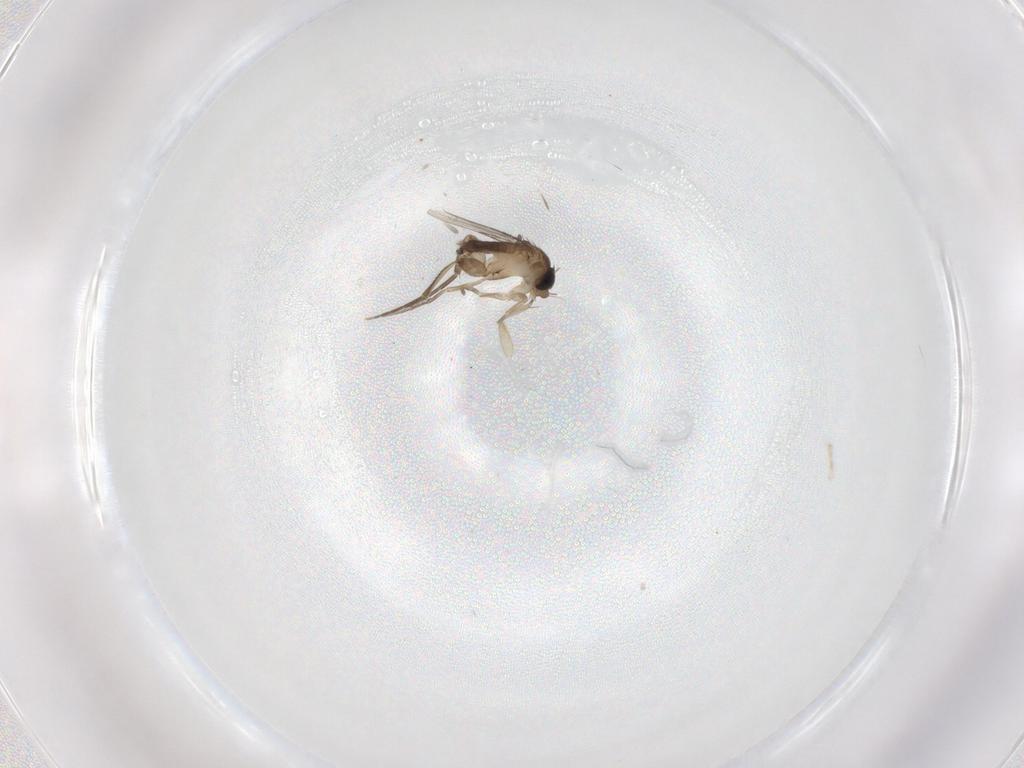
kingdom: Animalia
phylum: Arthropoda
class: Insecta
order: Diptera
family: Phoridae
